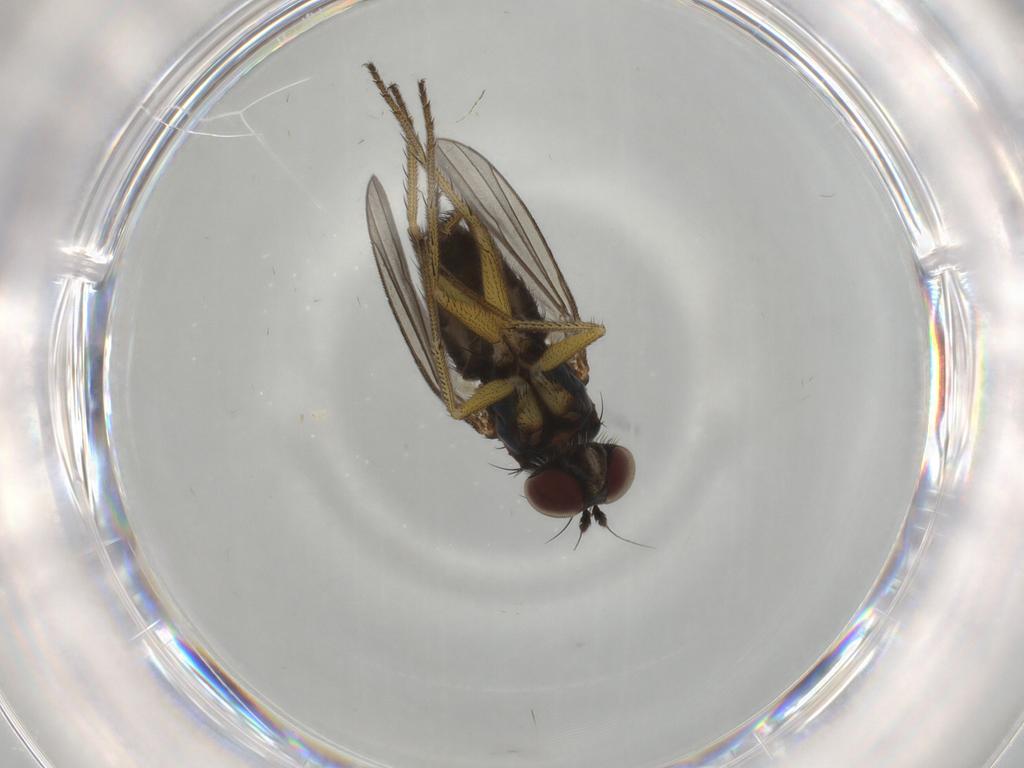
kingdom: Animalia
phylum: Arthropoda
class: Insecta
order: Diptera
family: Dolichopodidae
